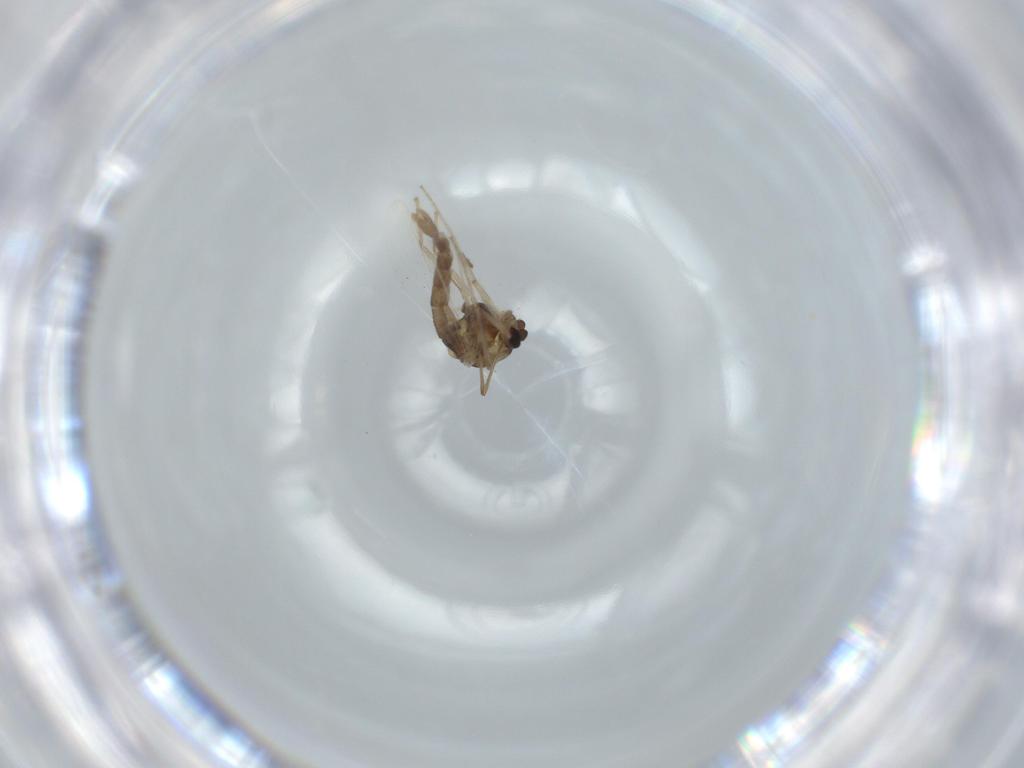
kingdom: Animalia
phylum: Arthropoda
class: Insecta
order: Diptera
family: Chironomidae
